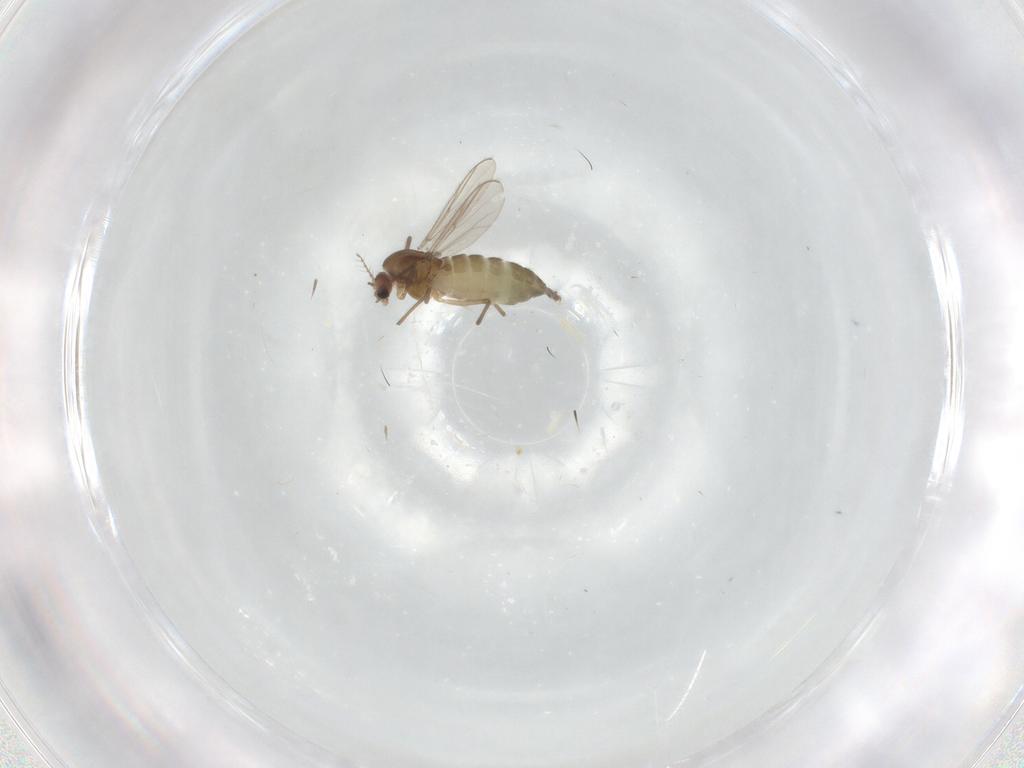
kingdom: Animalia
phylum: Arthropoda
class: Insecta
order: Diptera
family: Chironomidae
